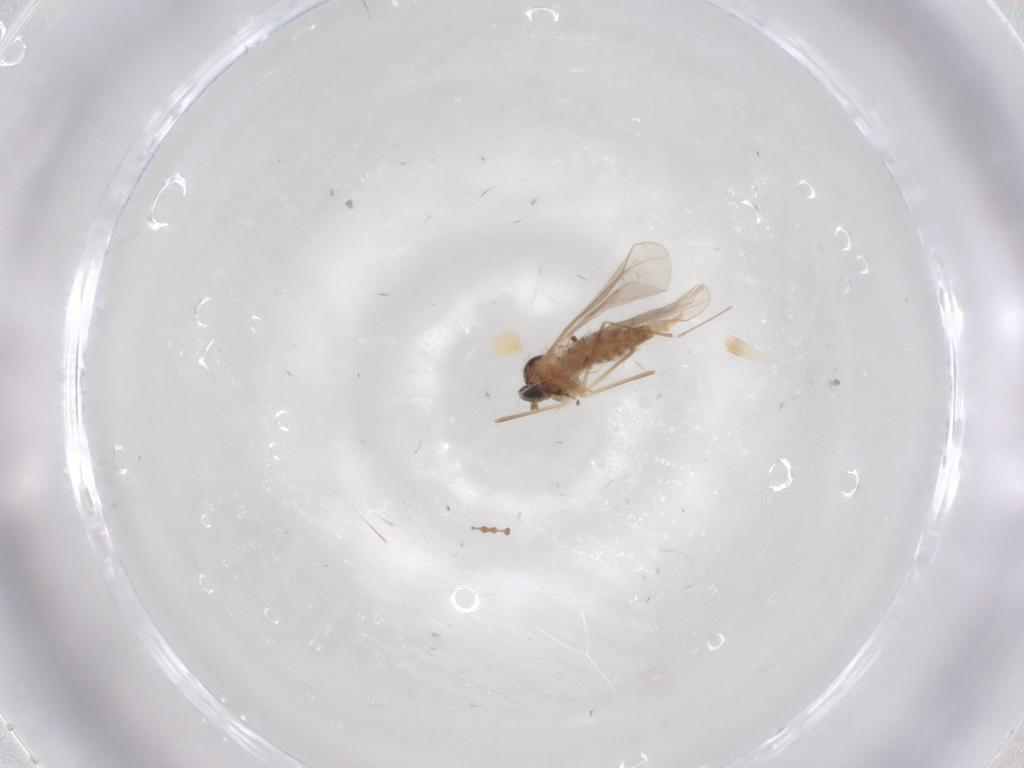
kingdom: Animalia
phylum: Arthropoda
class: Insecta
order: Diptera
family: Cecidomyiidae
